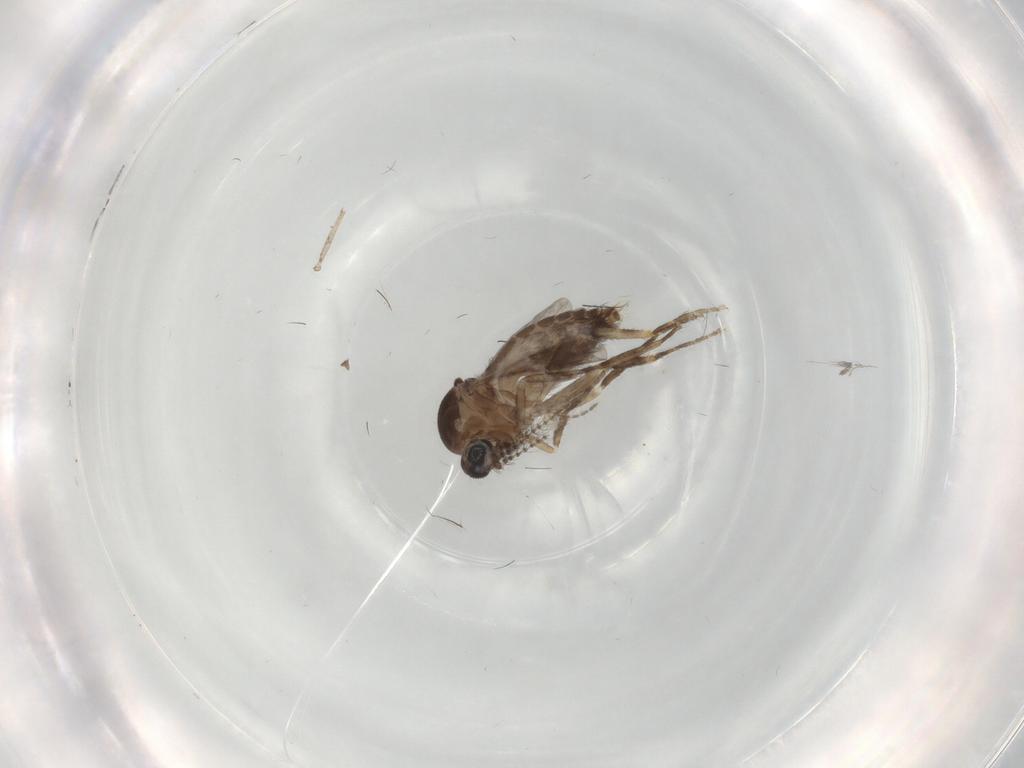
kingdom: Animalia
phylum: Arthropoda
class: Insecta
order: Diptera
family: Ceratopogonidae
